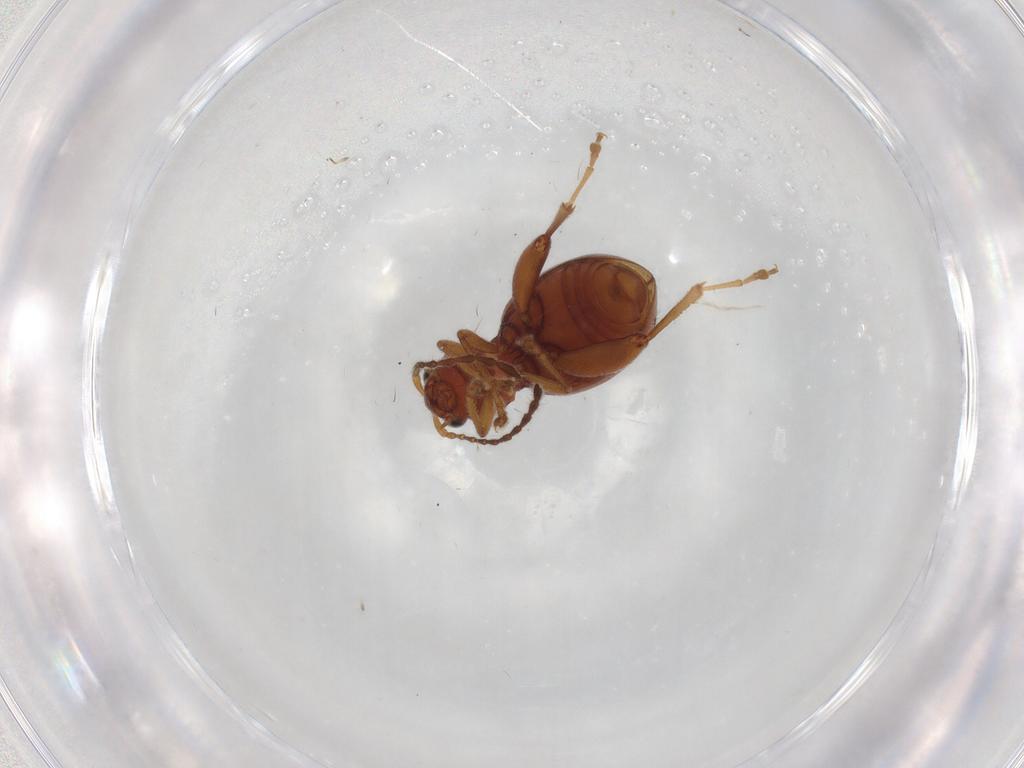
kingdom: Animalia
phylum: Arthropoda
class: Insecta
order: Coleoptera
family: Chrysomelidae
